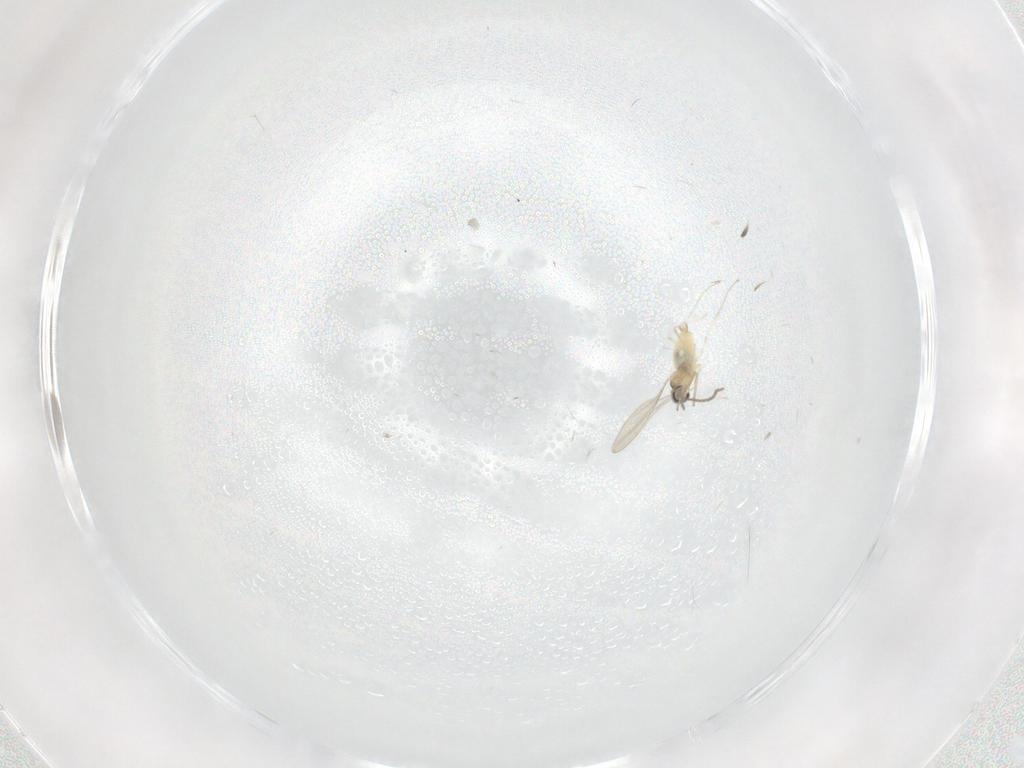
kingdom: Animalia
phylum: Arthropoda
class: Insecta
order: Diptera
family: Cecidomyiidae
